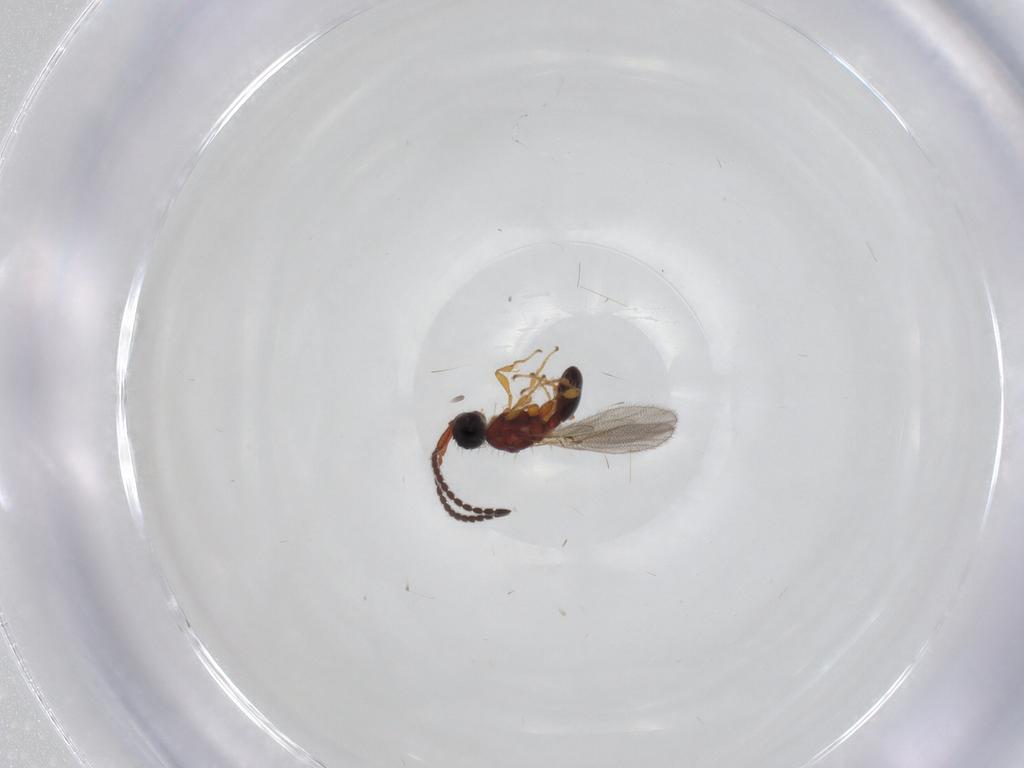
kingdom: Animalia
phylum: Arthropoda
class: Insecta
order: Hymenoptera
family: Diapriidae
